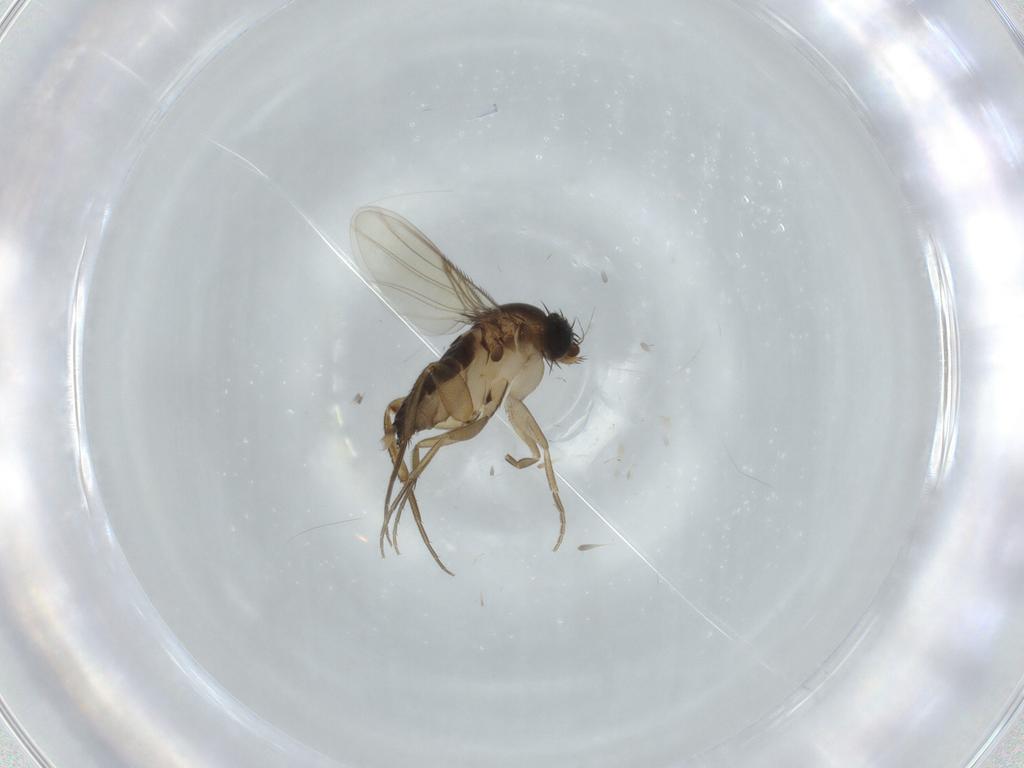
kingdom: Animalia
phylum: Arthropoda
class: Insecta
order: Diptera
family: Phoridae
